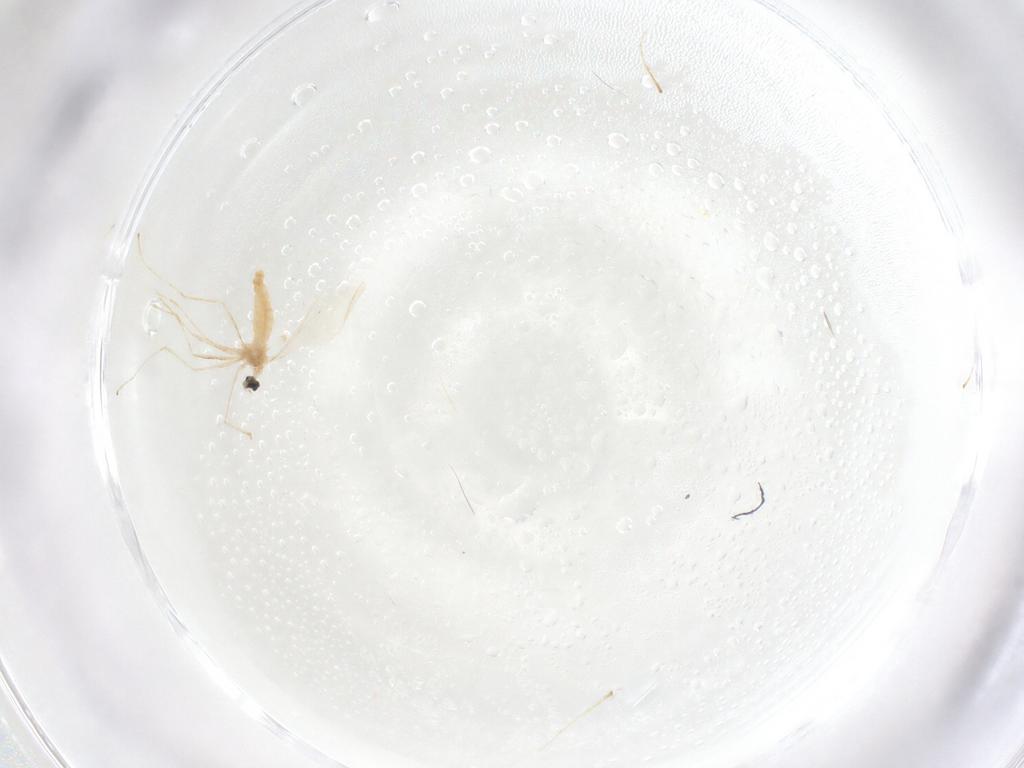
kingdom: Animalia
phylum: Arthropoda
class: Insecta
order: Diptera
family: Cecidomyiidae
